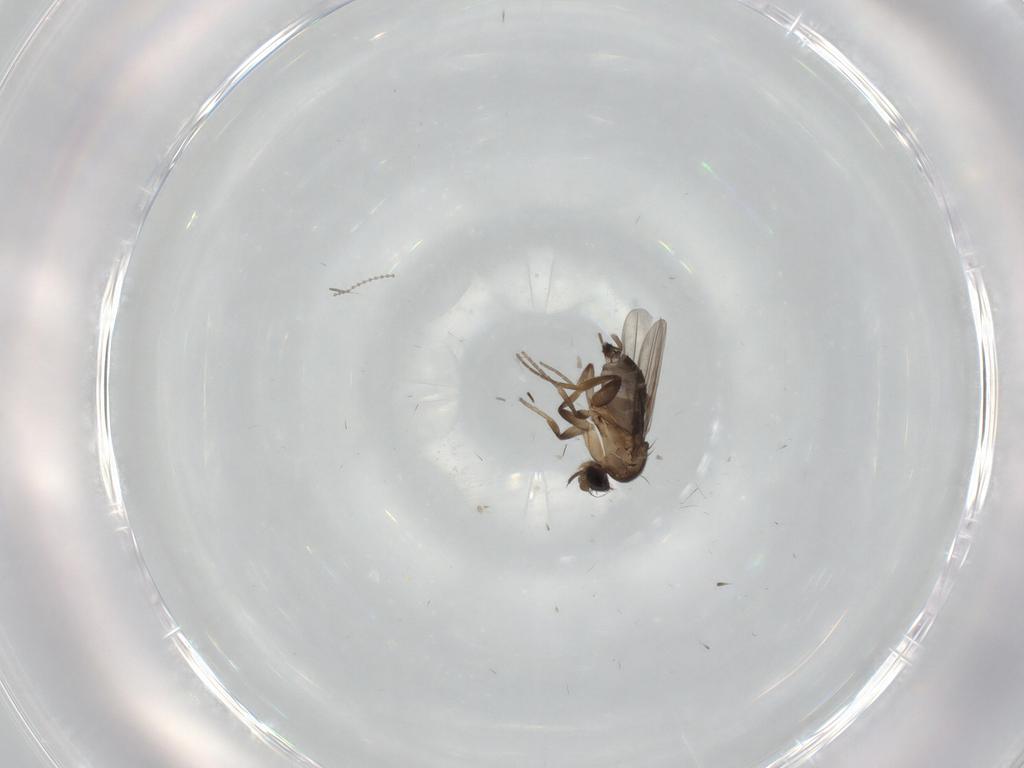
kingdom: Animalia
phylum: Arthropoda
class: Insecta
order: Diptera
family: Phoridae
